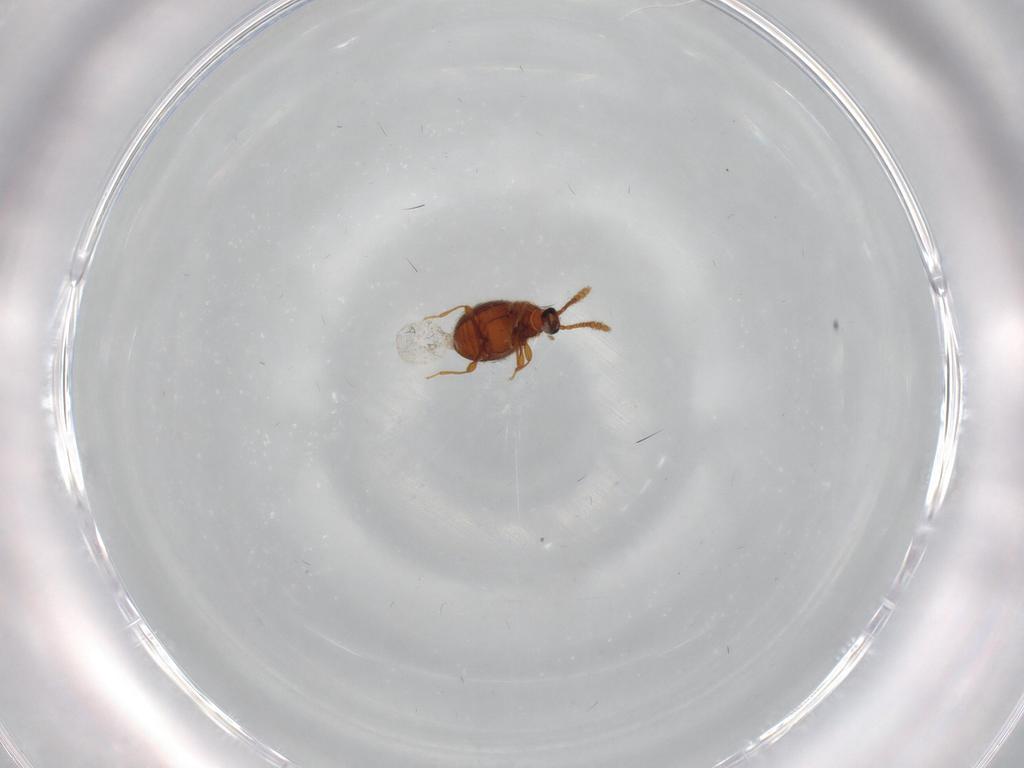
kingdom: Animalia
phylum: Arthropoda
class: Insecta
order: Coleoptera
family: Staphylinidae
